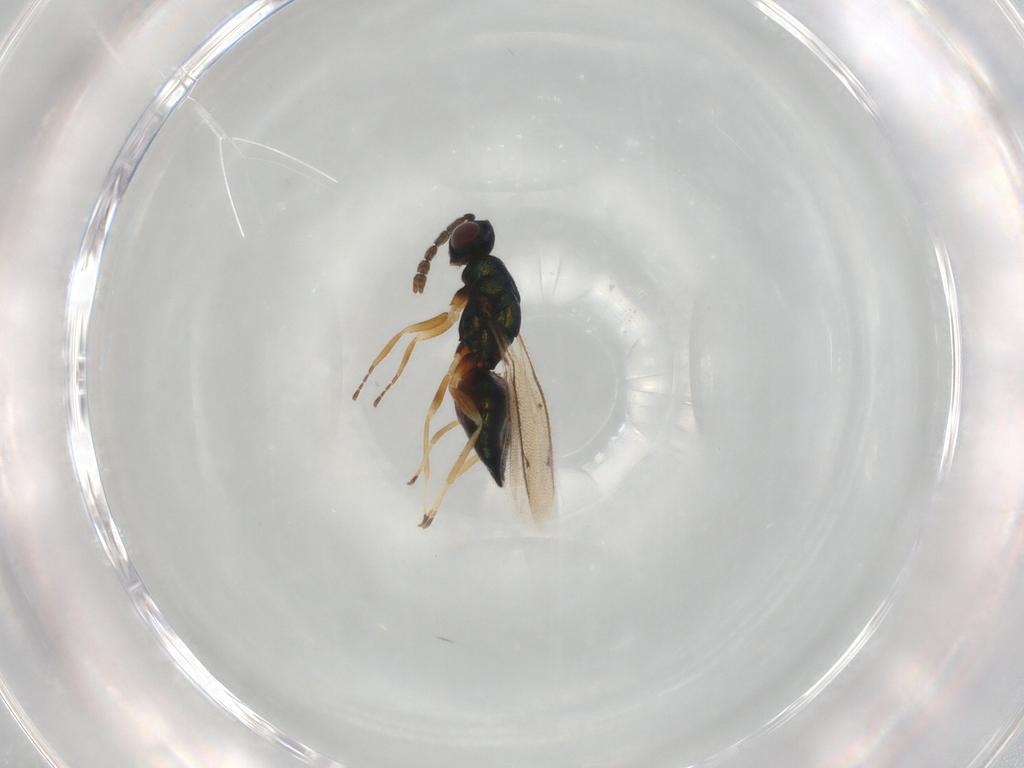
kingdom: Animalia
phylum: Arthropoda
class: Insecta
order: Hymenoptera
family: Eulophidae
